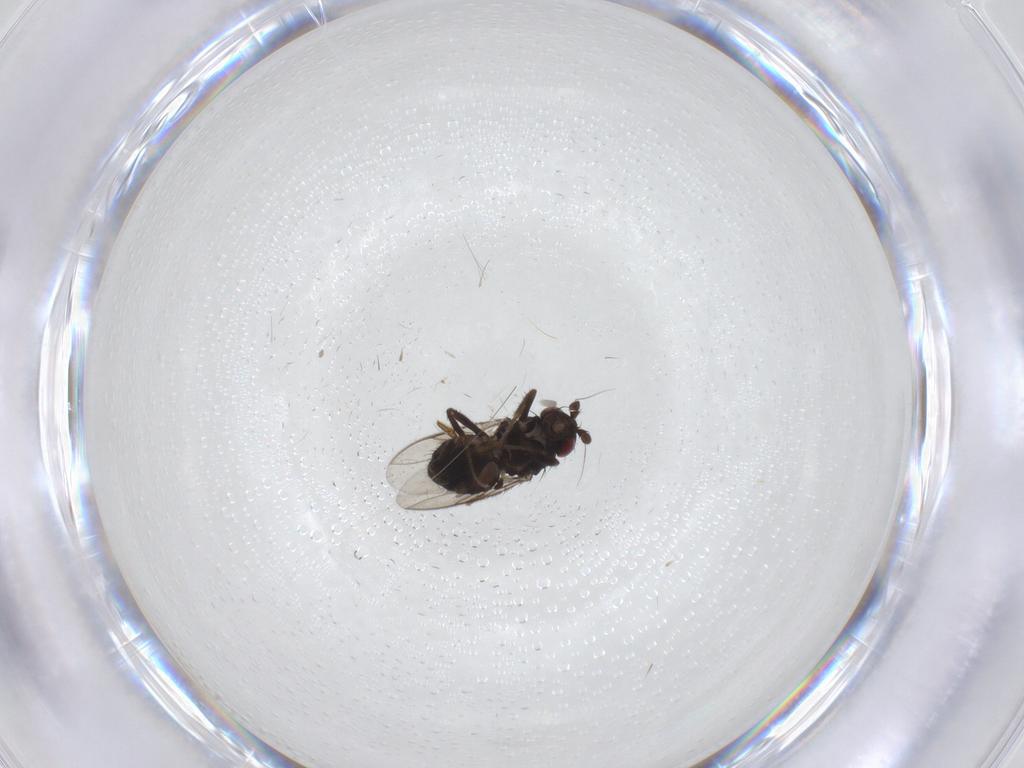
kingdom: Animalia
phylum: Arthropoda
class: Insecta
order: Diptera
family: Sphaeroceridae
